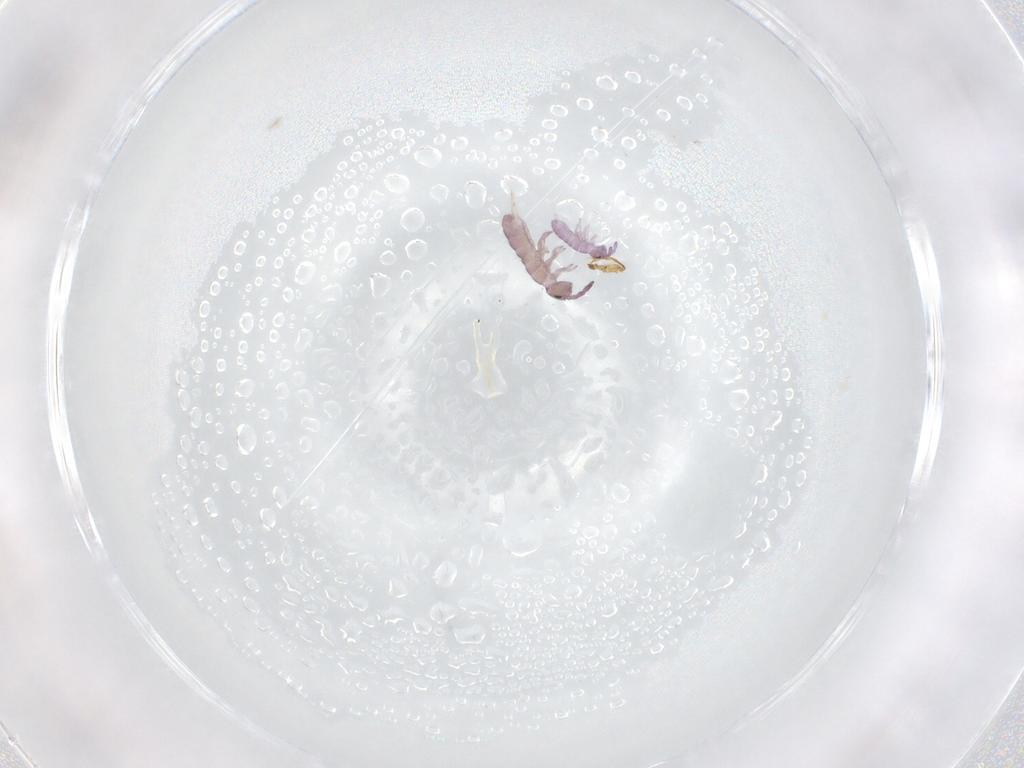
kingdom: Animalia
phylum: Arthropoda
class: Collembola
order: Entomobryomorpha
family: Isotomidae
